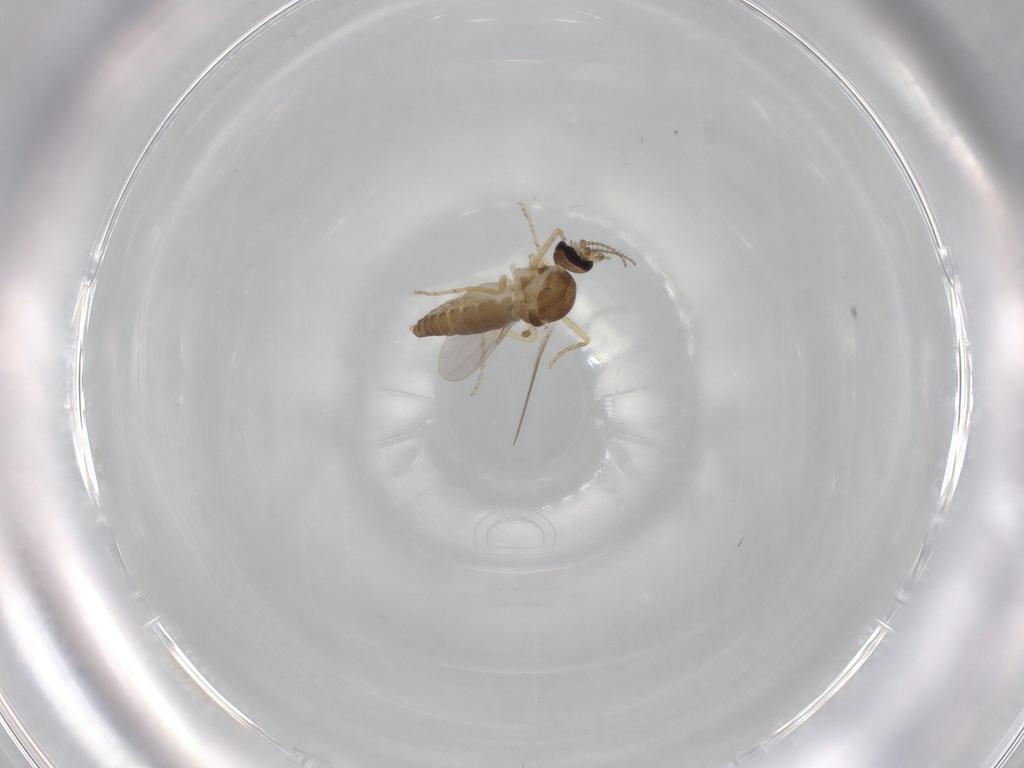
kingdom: Animalia
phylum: Arthropoda
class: Insecta
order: Diptera
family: Ceratopogonidae
